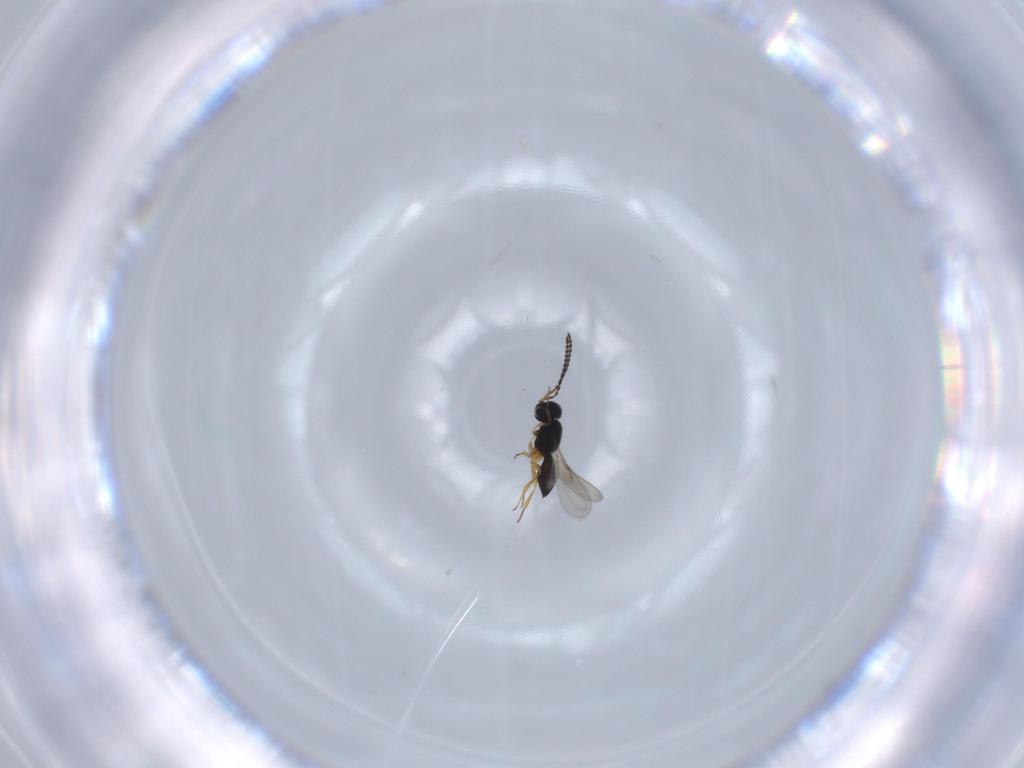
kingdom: Animalia
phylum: Arthropoda
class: Insecta
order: Hymenoptera
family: Scelionidae
